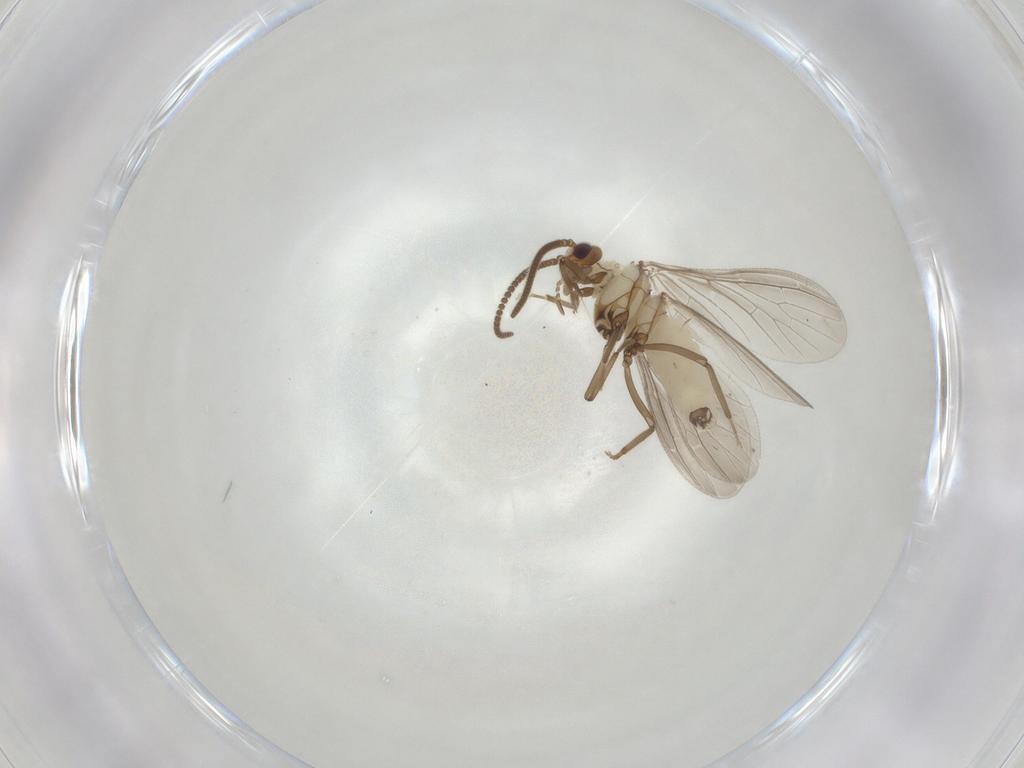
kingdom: Animalia
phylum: Arthropoda
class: Insecta
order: Neuroptera
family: Coniopterygidae
